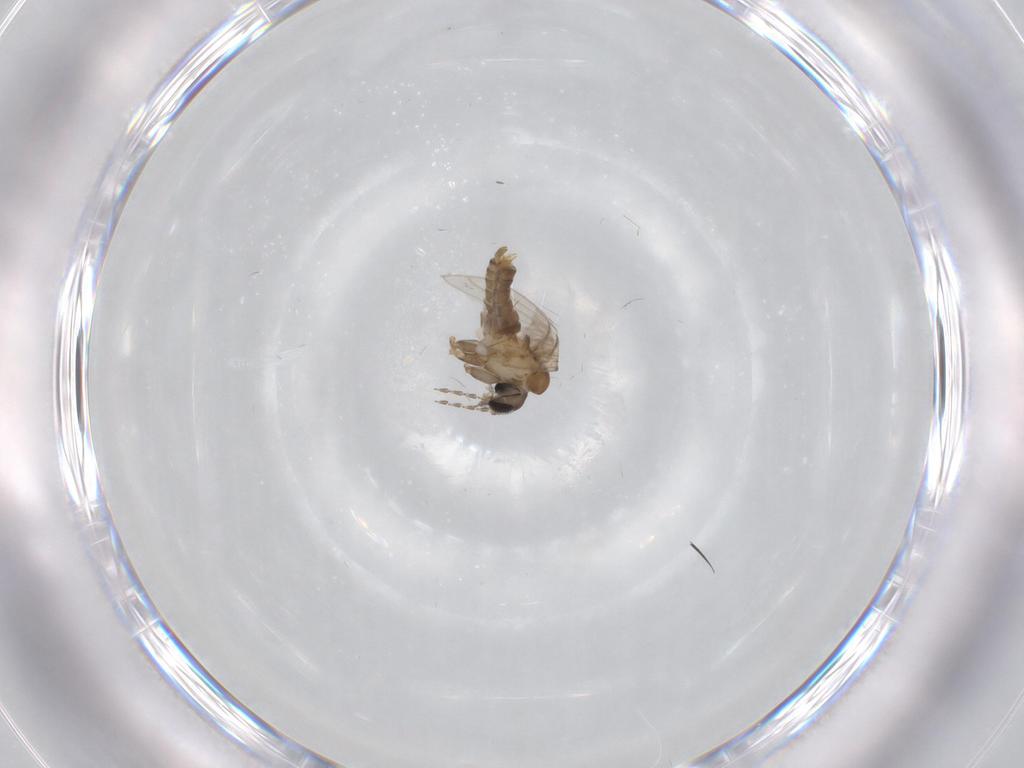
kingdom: Animalia
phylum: Arthropoda
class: Insecta
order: Diptera
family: Psychodidae
